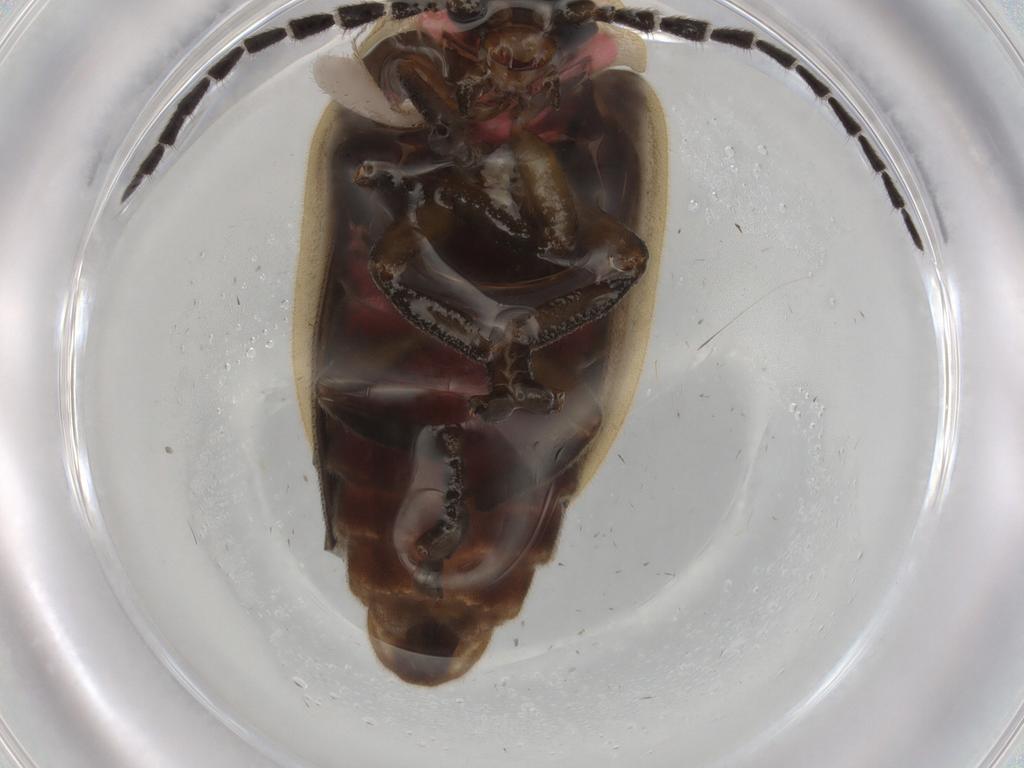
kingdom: Animalia
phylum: Arthropoda
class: Insecta
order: Coleoptera
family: Lampyridae
